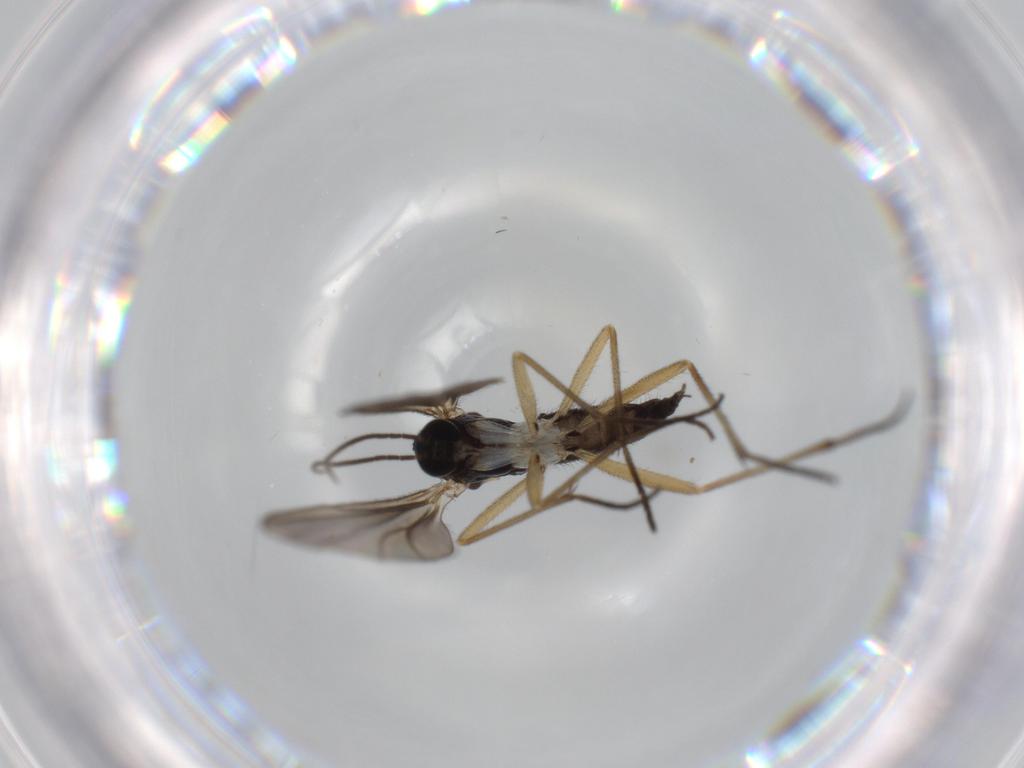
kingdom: Animalia
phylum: Arthropoda
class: Insecta
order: Diptera
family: Sciaridae
